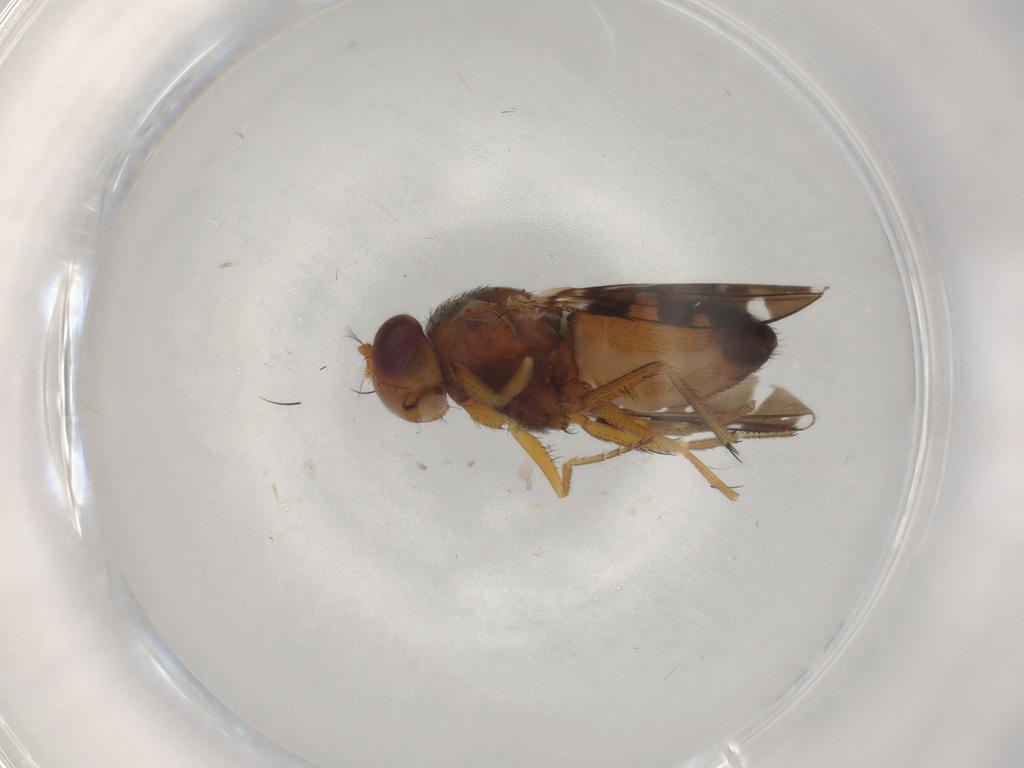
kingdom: Animalia
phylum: Arthropoda
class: Insecta
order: Diptera
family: Ephydridae
